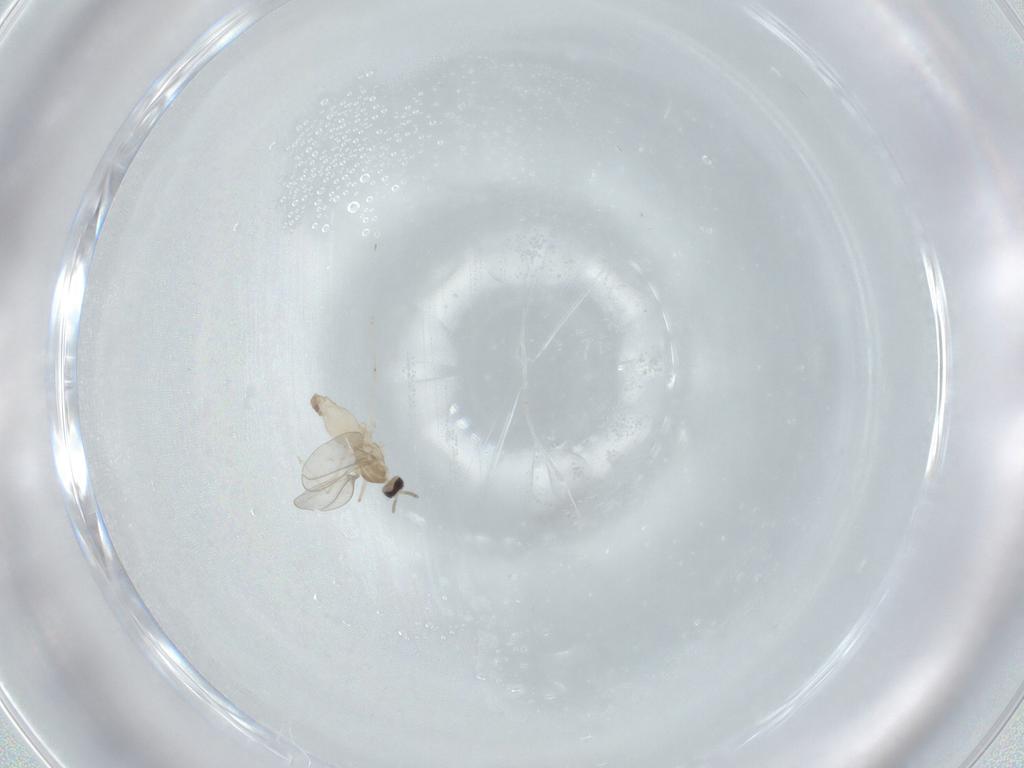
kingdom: Animalia
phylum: Arthropoda
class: Insecta
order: Diptera
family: Cecidomyiidae
